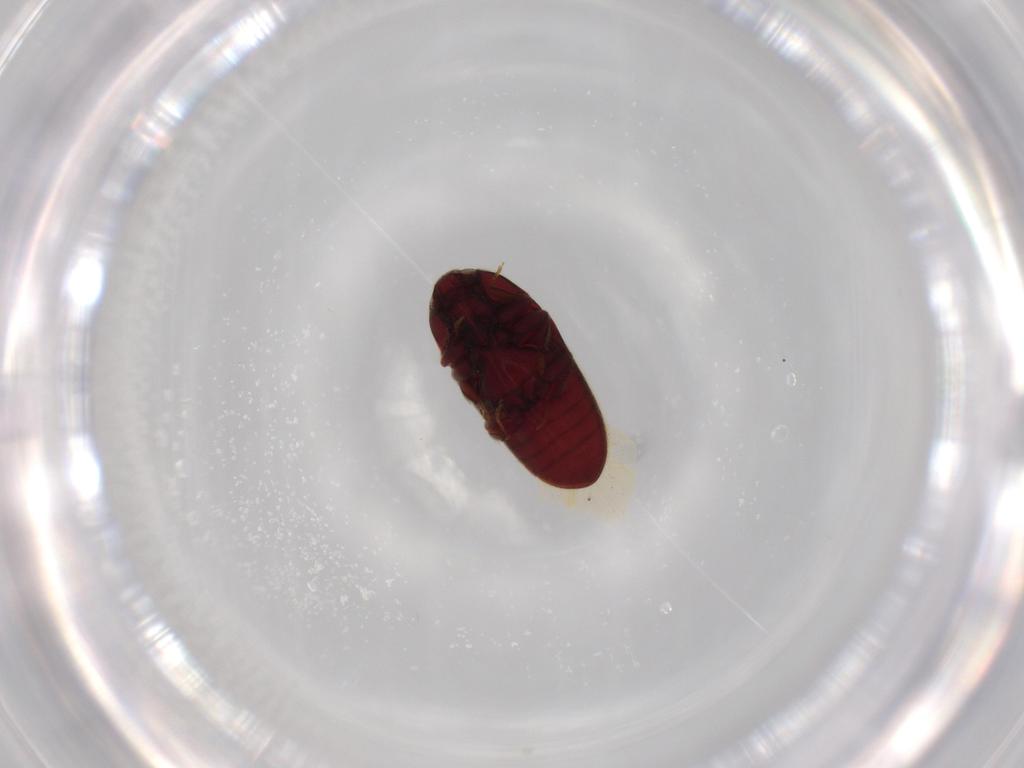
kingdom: Animalia
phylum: Arthropoda
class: Insecta
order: Coleoptera
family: Throscidae
